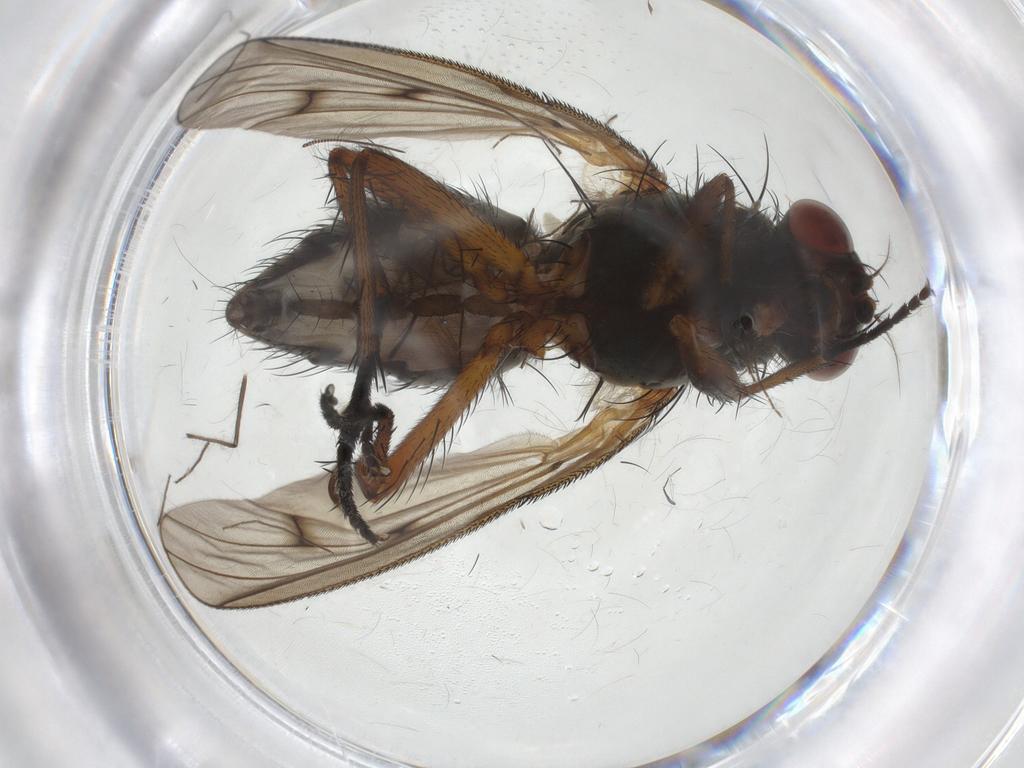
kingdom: Animalia
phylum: Arthropoda
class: Insecta
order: Diptera
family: Anthomyiidae
